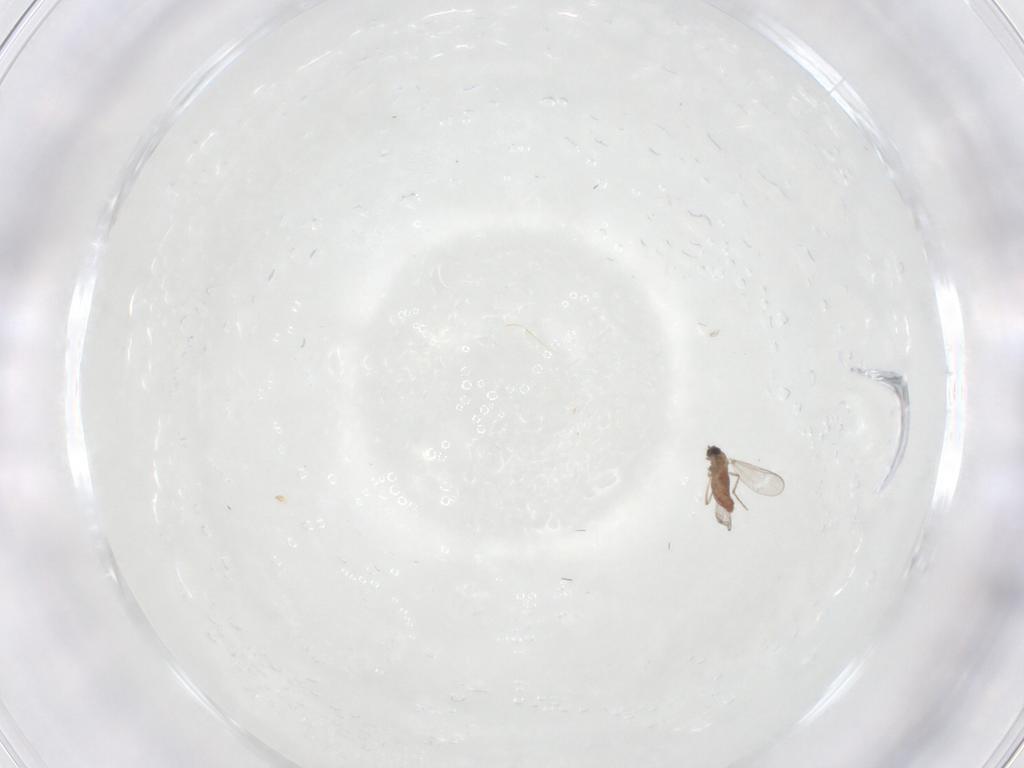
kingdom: Animalia
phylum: Arthropoda
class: Insecta
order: Diptera
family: Chironomidae
